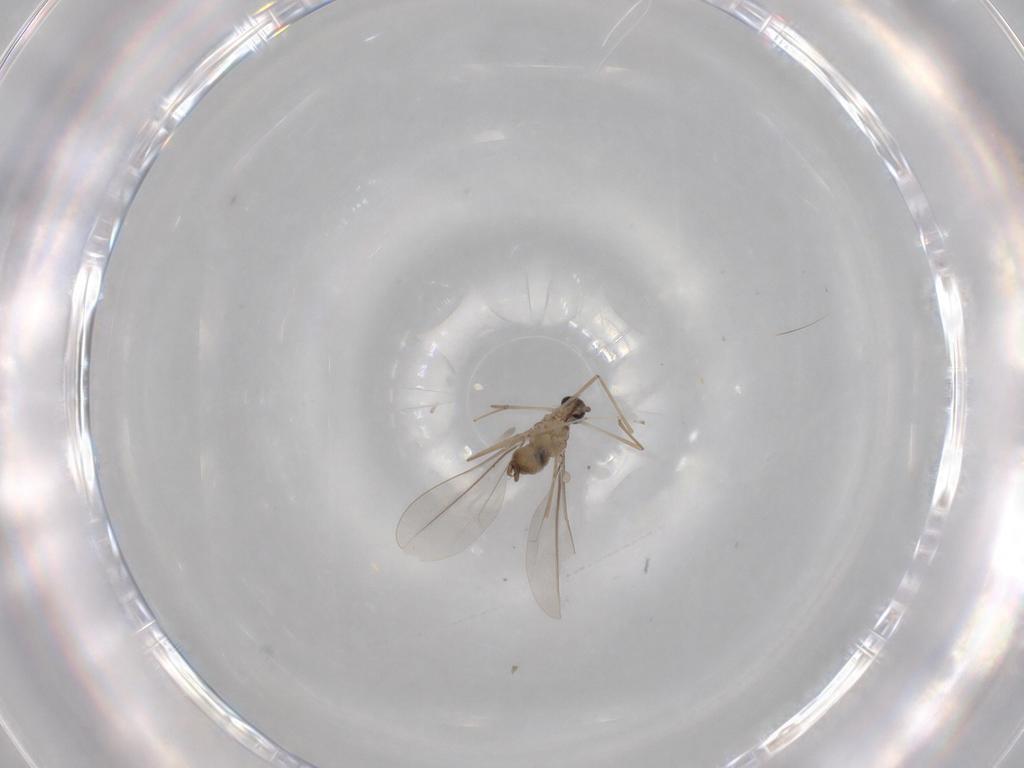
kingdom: Animalia
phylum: Arthropoda
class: Insecta
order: Diptera
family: Cecidomyiidae
